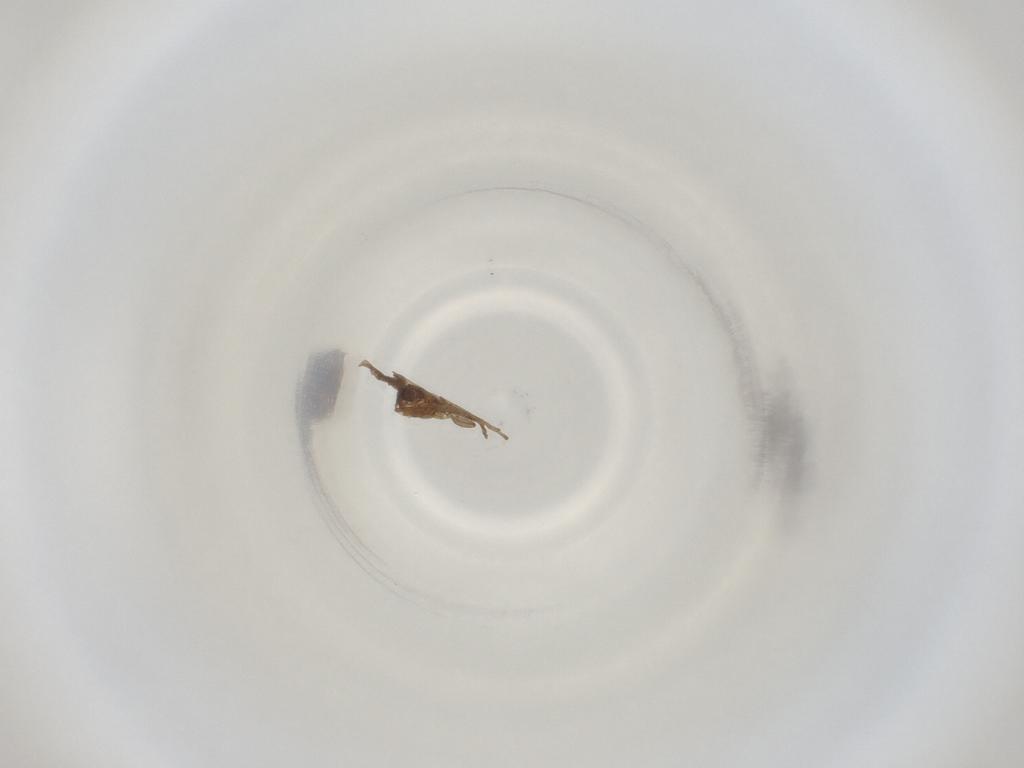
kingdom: Animalia
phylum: Arthropoda
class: Insecta
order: Diptera
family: Cecidomyiidae
